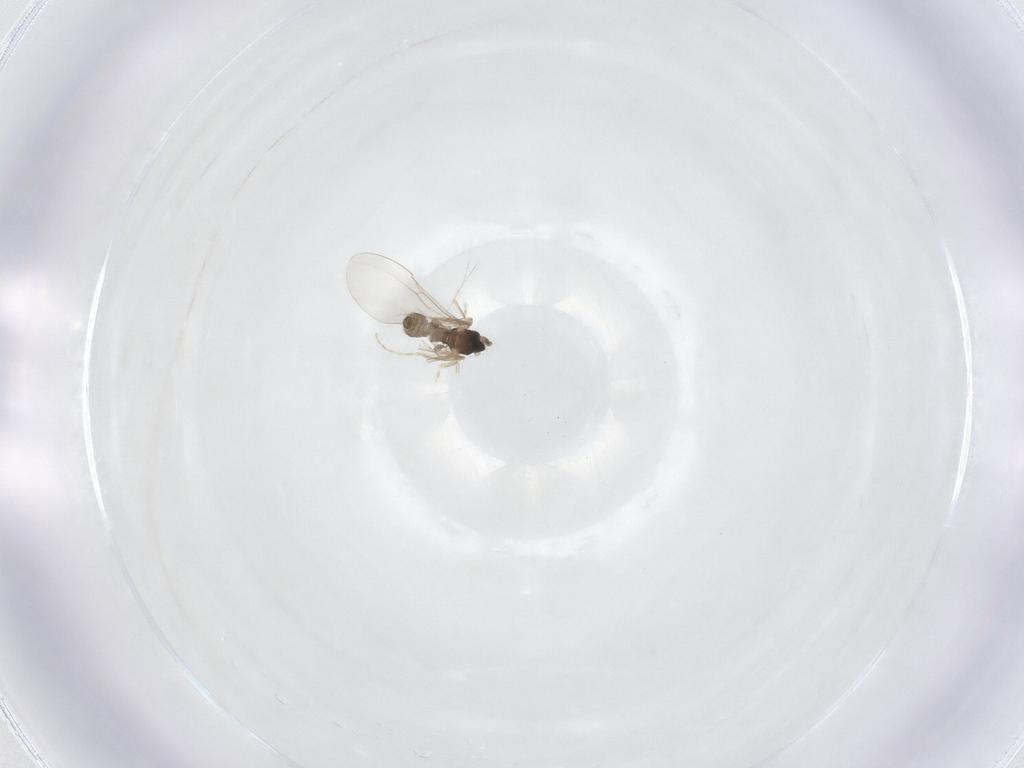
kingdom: Animalia
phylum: Arthropoda
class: Insecta
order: Diptera
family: Cecidomyiidae
